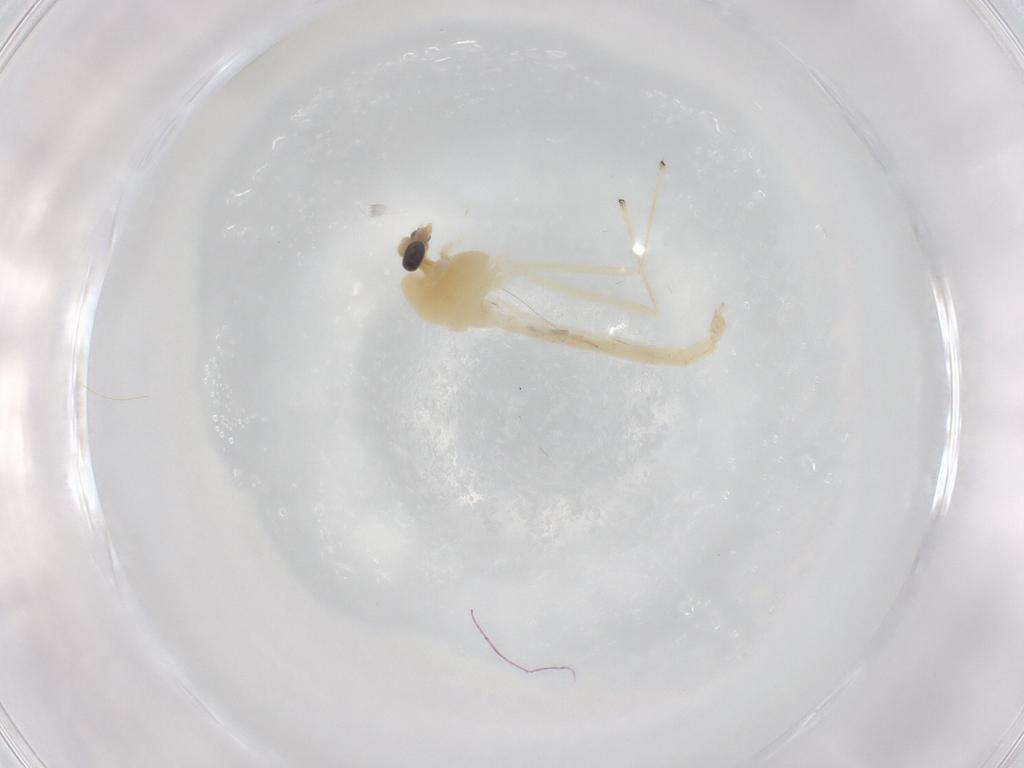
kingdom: Animalia
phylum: Arthropoda
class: Insecta
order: Diptera
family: Chironomidae
